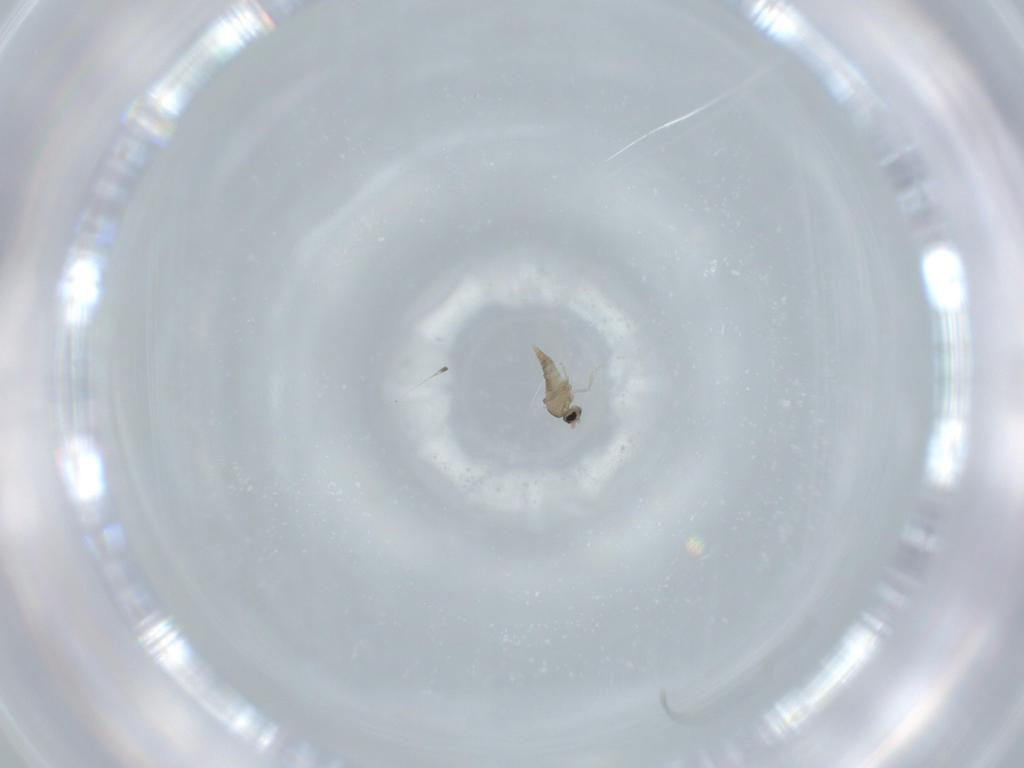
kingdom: Animalia
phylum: Arthropoda
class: Insecta
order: Diptera
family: Cecidomyiidae
